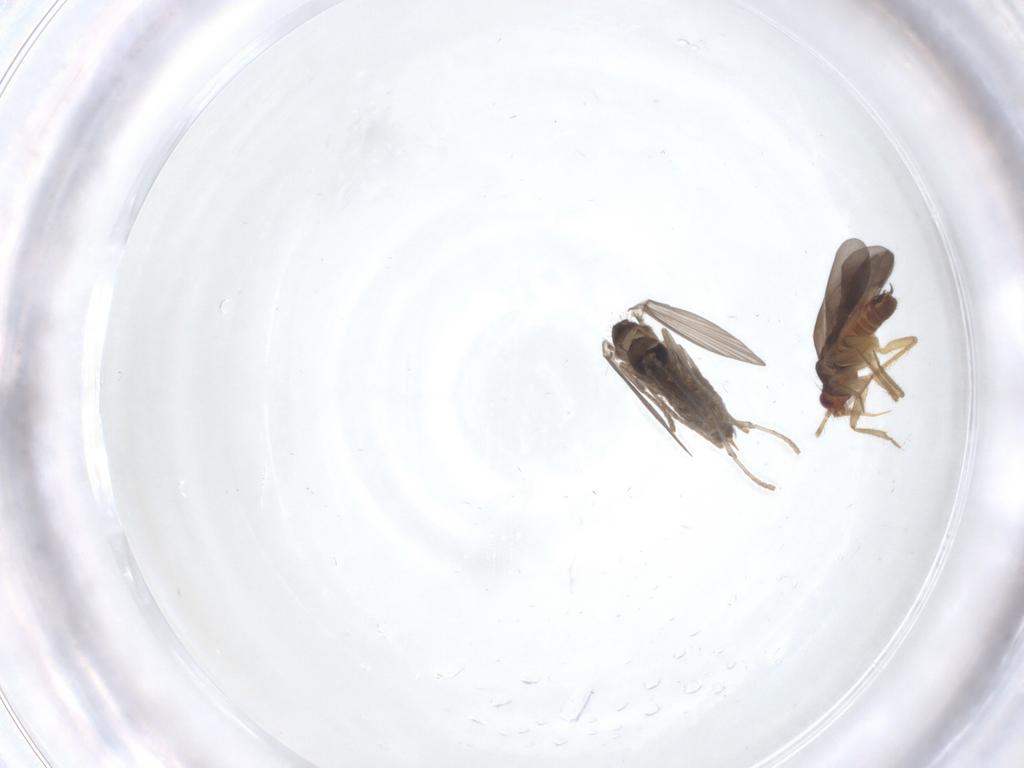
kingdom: Animalia
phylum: Arthropoda
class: Insecta
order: Diptera
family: Psychodidae
